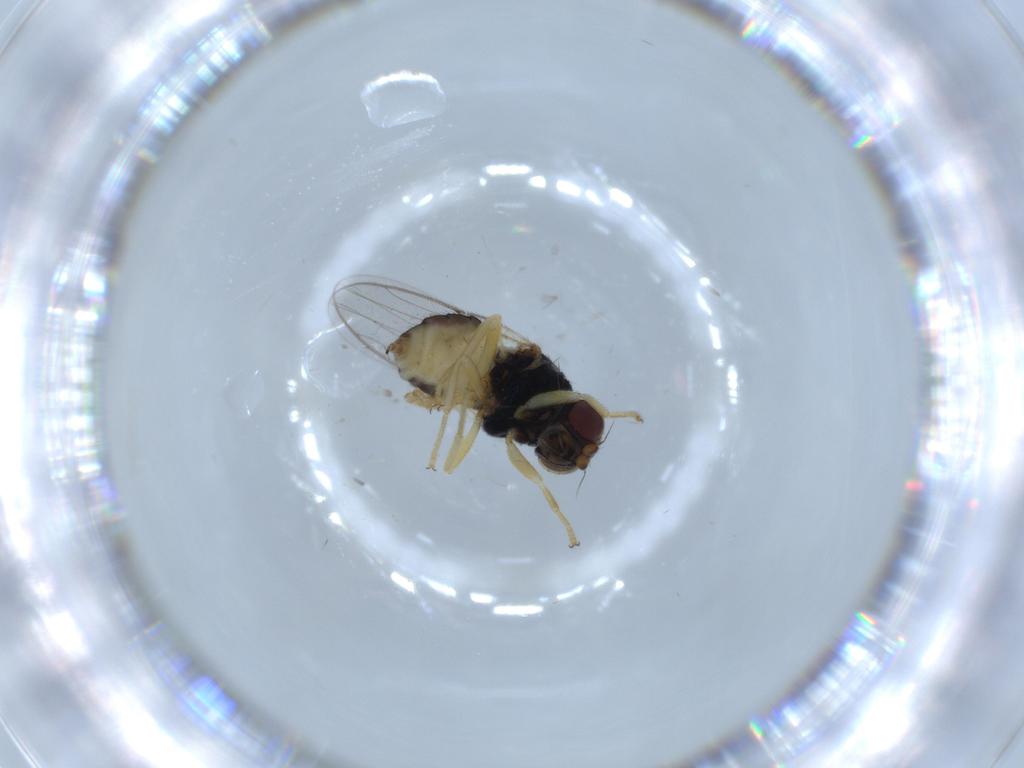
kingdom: Animalia
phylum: Arthropoda
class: Insecta
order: Diptera
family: Chloropidae
